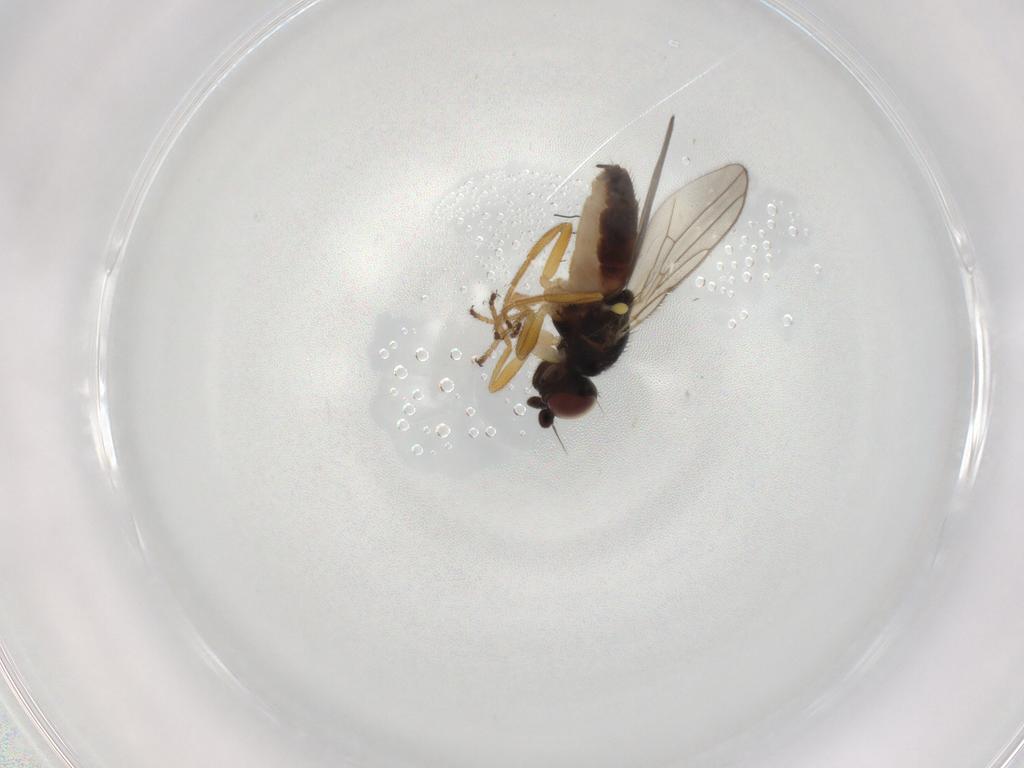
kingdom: Animalia
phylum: Arthropoda
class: Insecta
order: Diptera
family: Chloropidae
